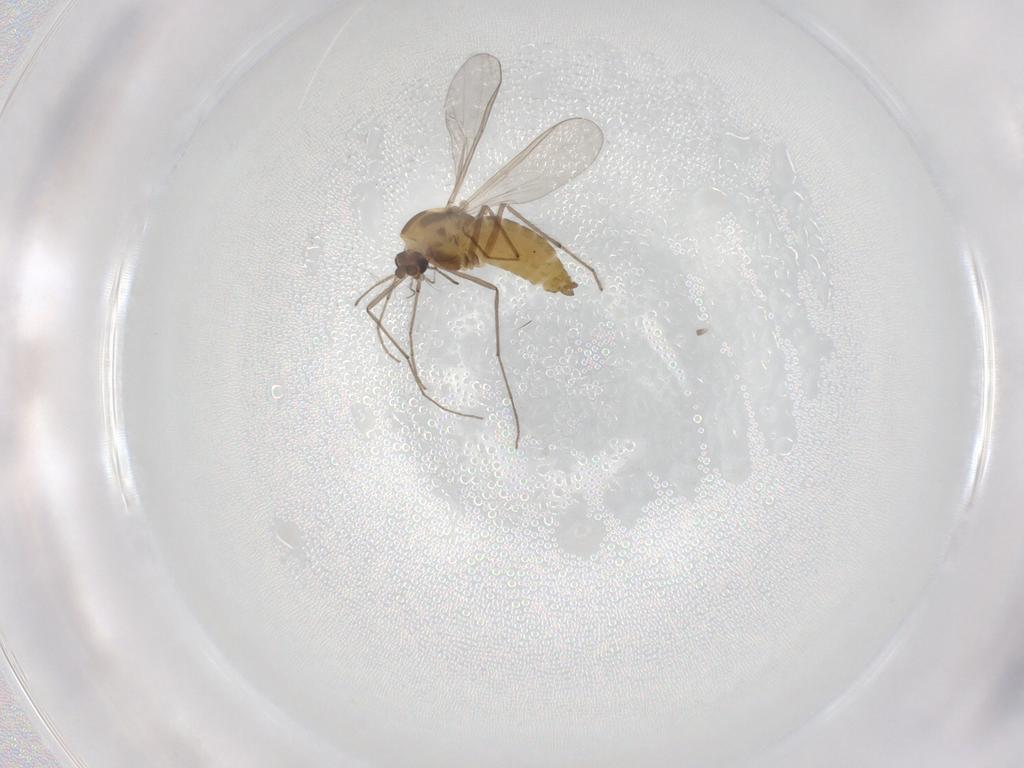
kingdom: Animalia
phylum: Arthropoda
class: Insecta
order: Diptera
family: Chironomidae
